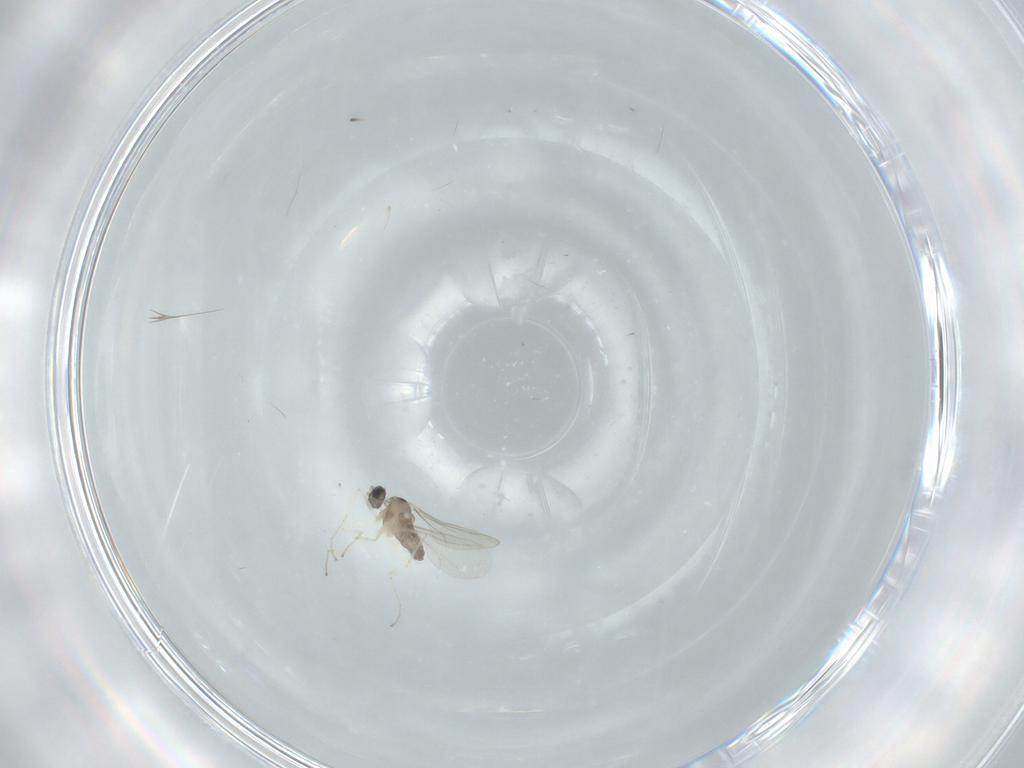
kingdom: Animalia
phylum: Arthropoda
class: Insecta
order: Diptera
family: Cecidomyiidae
